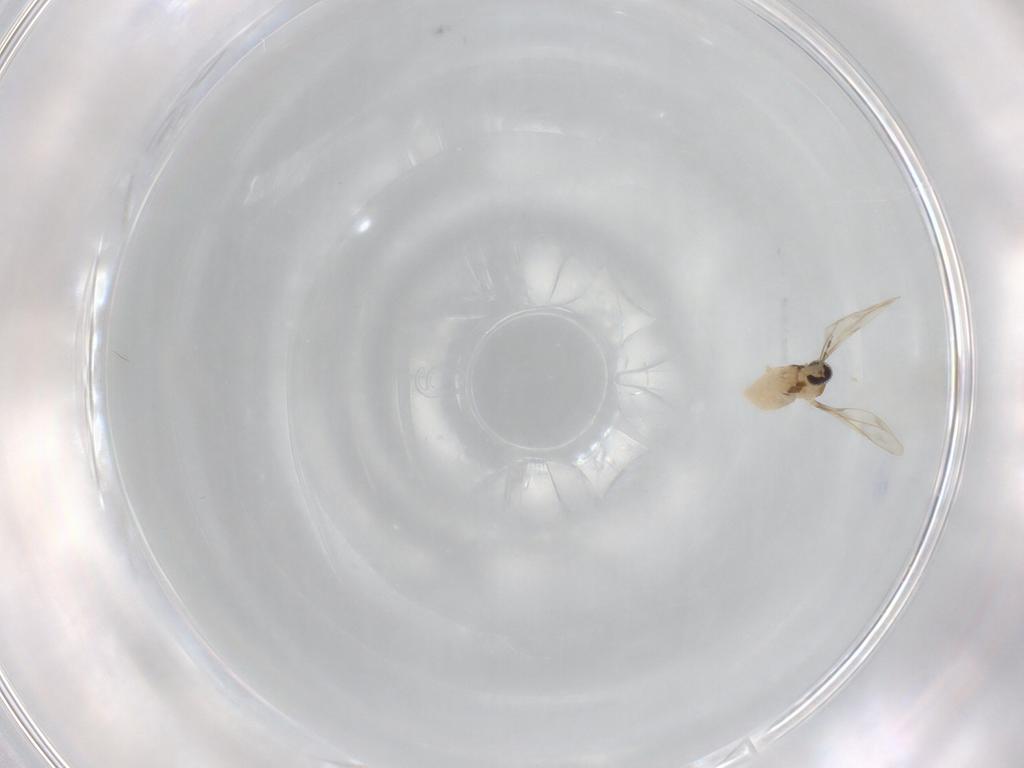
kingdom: Animalia
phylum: Arthropoda
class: Insecta
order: Diptera
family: Cecidomyiidae
